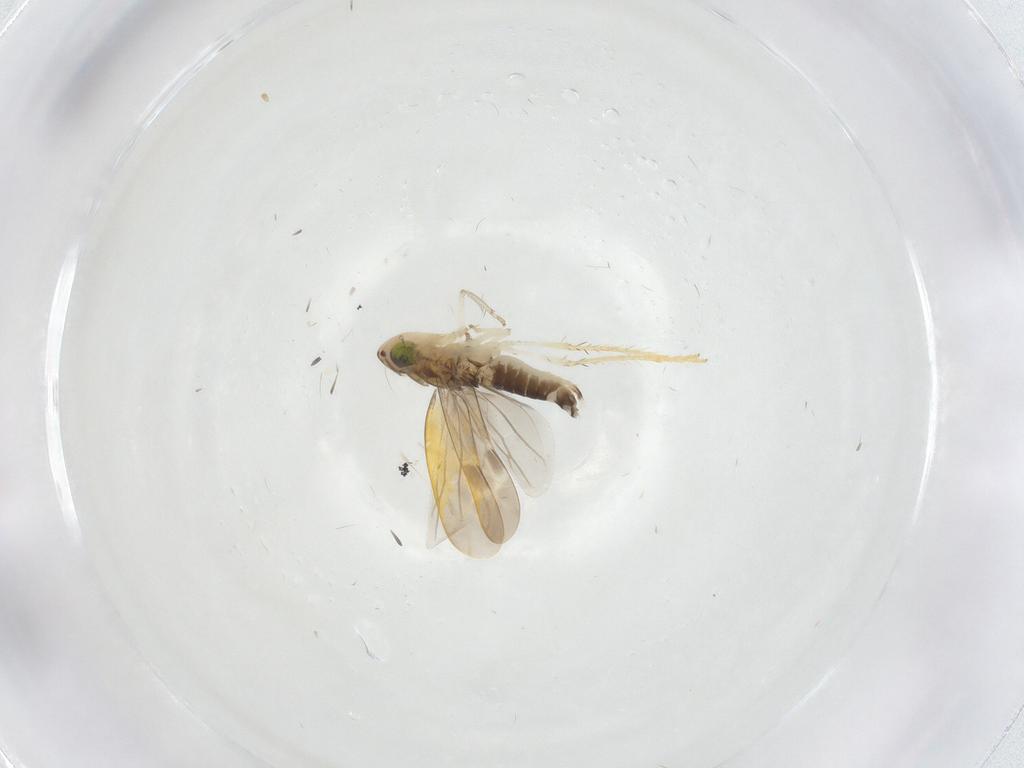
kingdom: Animalia
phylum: Arthropoda
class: Insecta
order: Hemiptera
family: Cicadellidae
